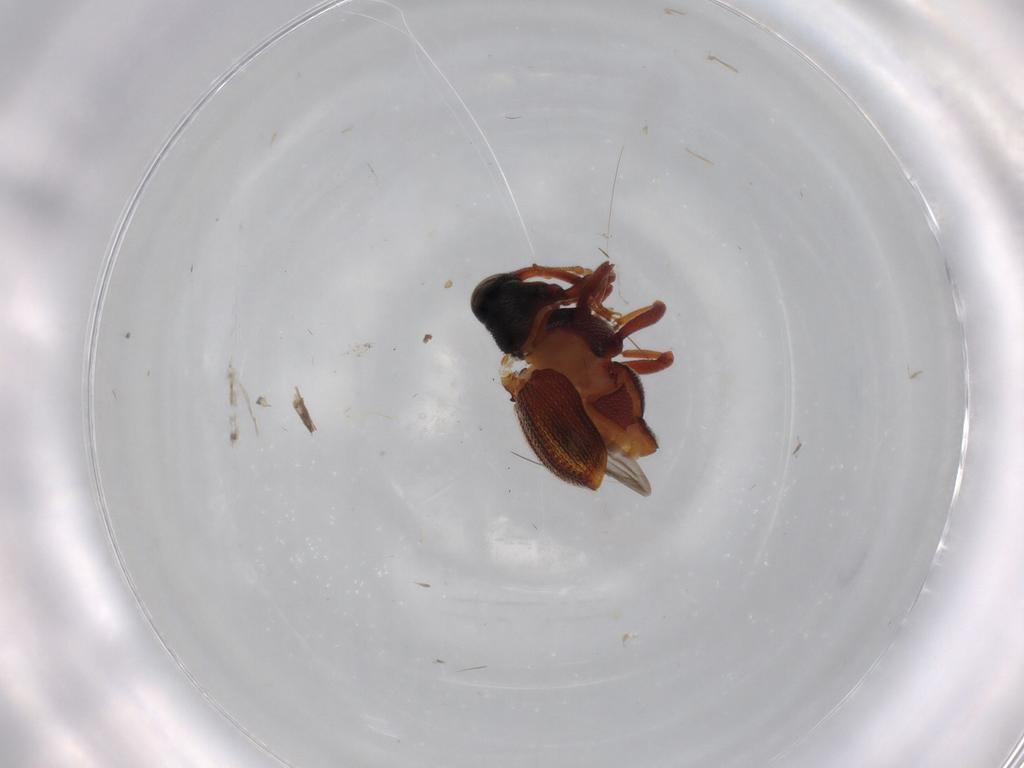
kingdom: Animalia
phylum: Arthropoda
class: Insecta
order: Coleoptera
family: Curculionidae
